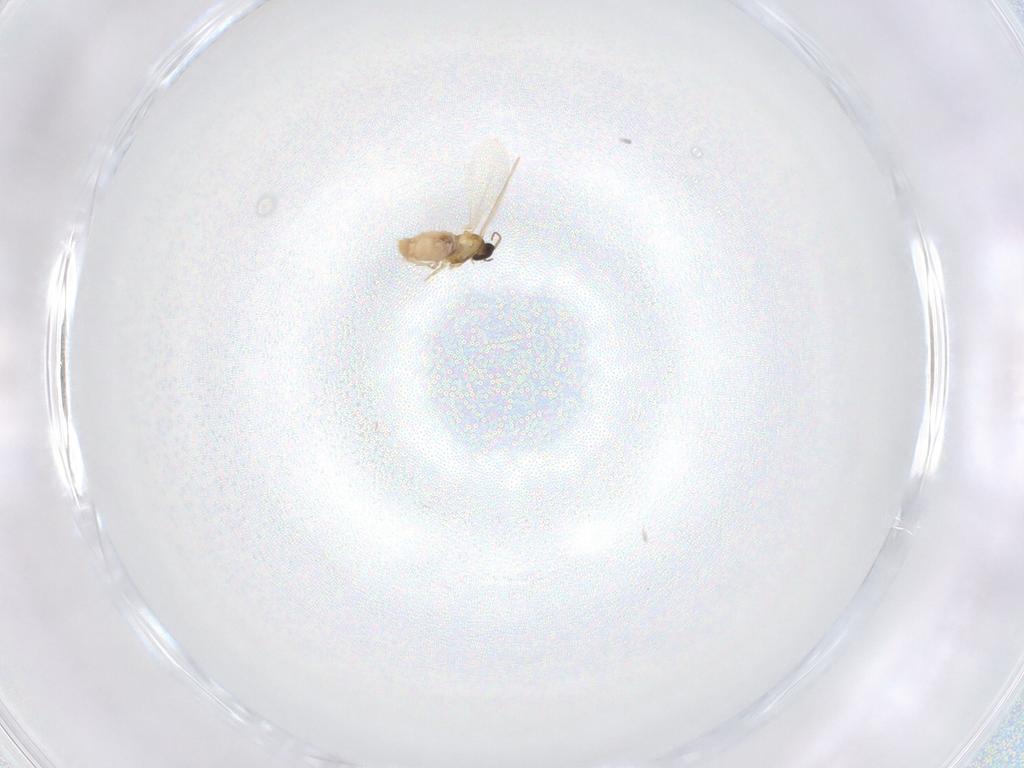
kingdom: Animalia
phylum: Arthropoda
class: Insecta
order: Diptera
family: Cecidomyiidae
